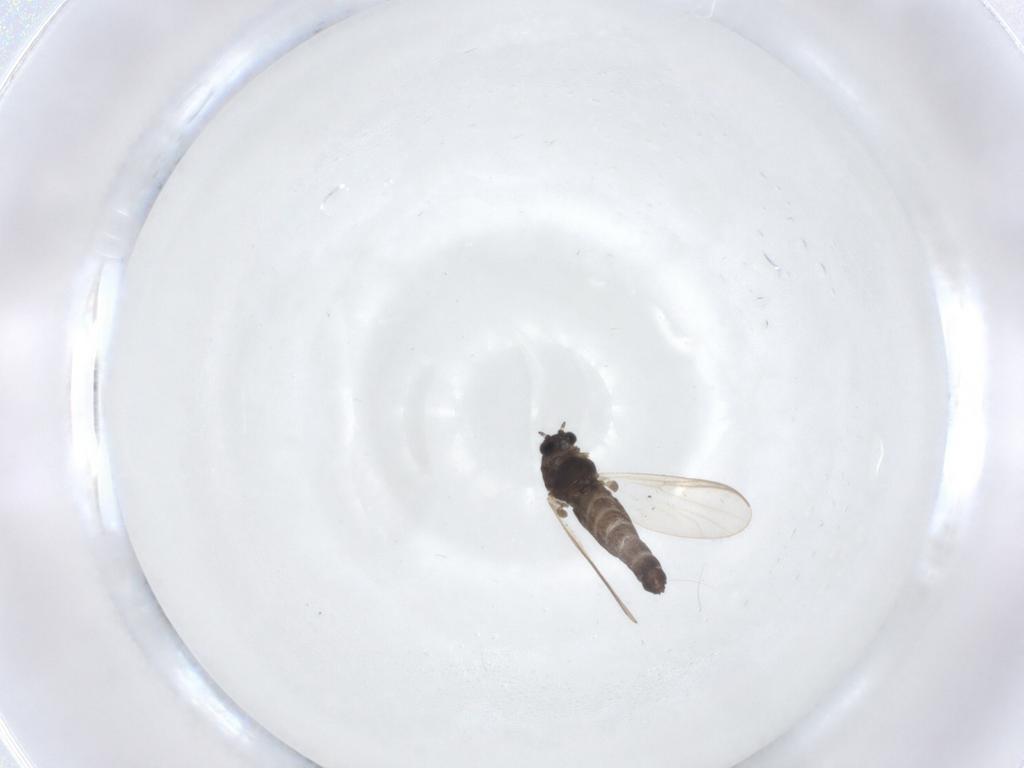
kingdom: Animalia
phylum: Arthropoda
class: Insecta
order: Diptera
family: Chironomidae
